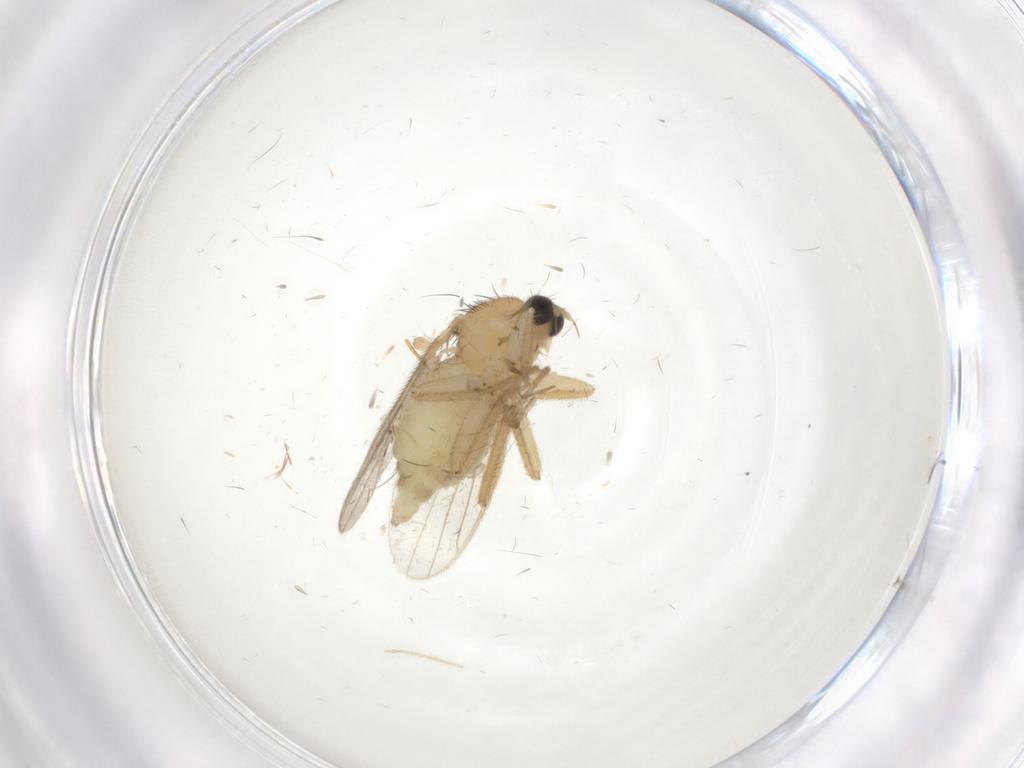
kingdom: Animalia
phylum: Arthropoda
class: Insecta
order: Diptera
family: Hybotidae
